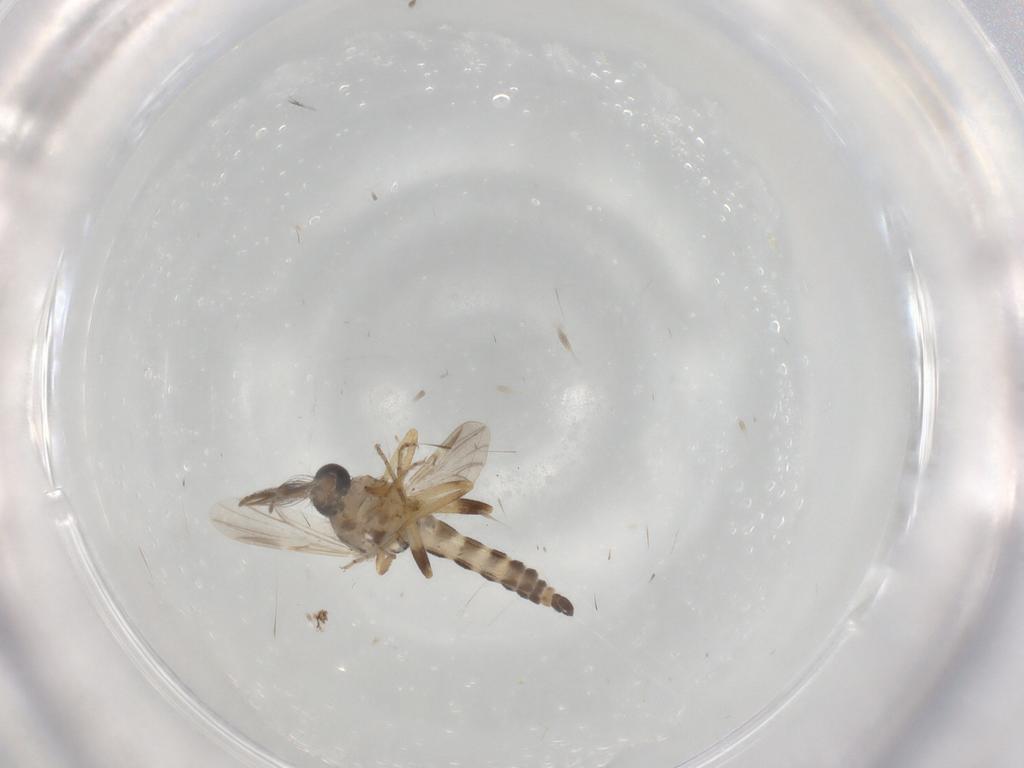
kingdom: Animalia
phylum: Arthropoda
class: Insecta
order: Diptera
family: Ceratopogonidae
